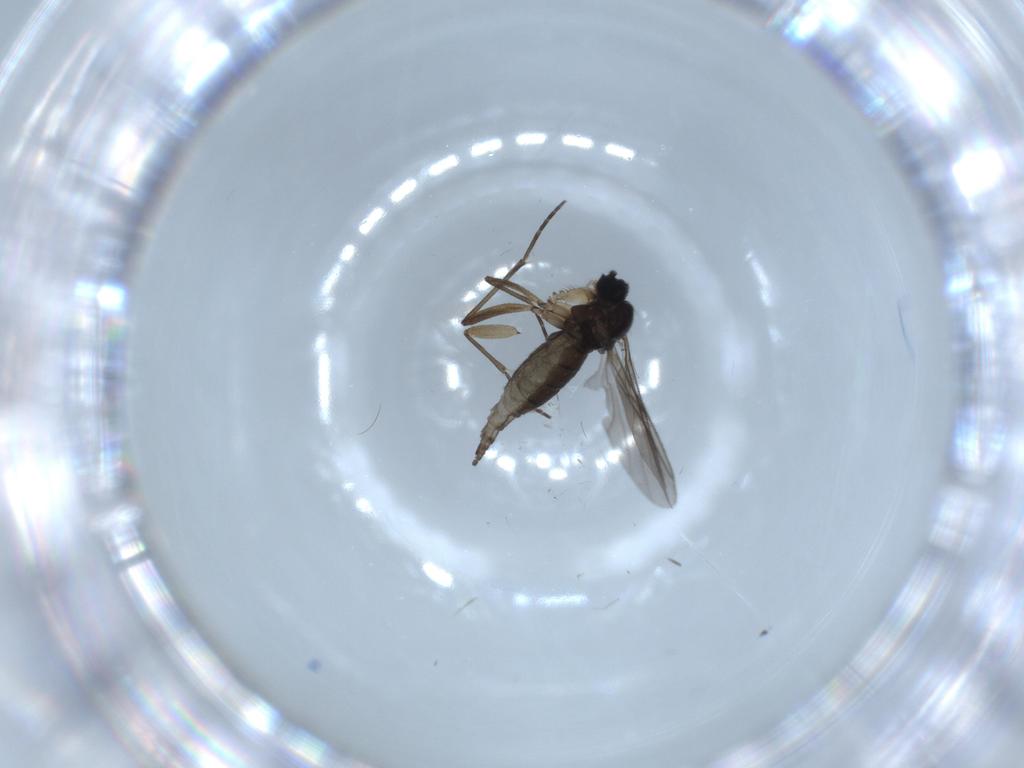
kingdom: Animalia
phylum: Arthropoda
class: Insecta
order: Diptera
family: Sciaridae
